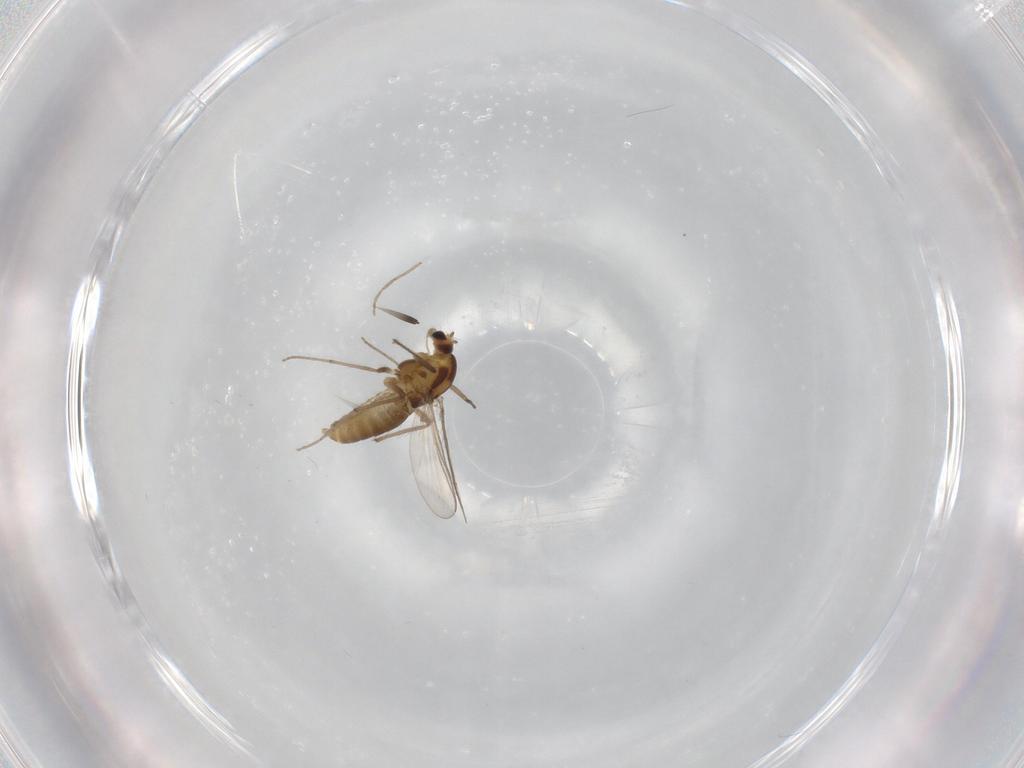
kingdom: Animalia
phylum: Arthropoda
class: Insecta
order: Diptera
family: Chironomidae
